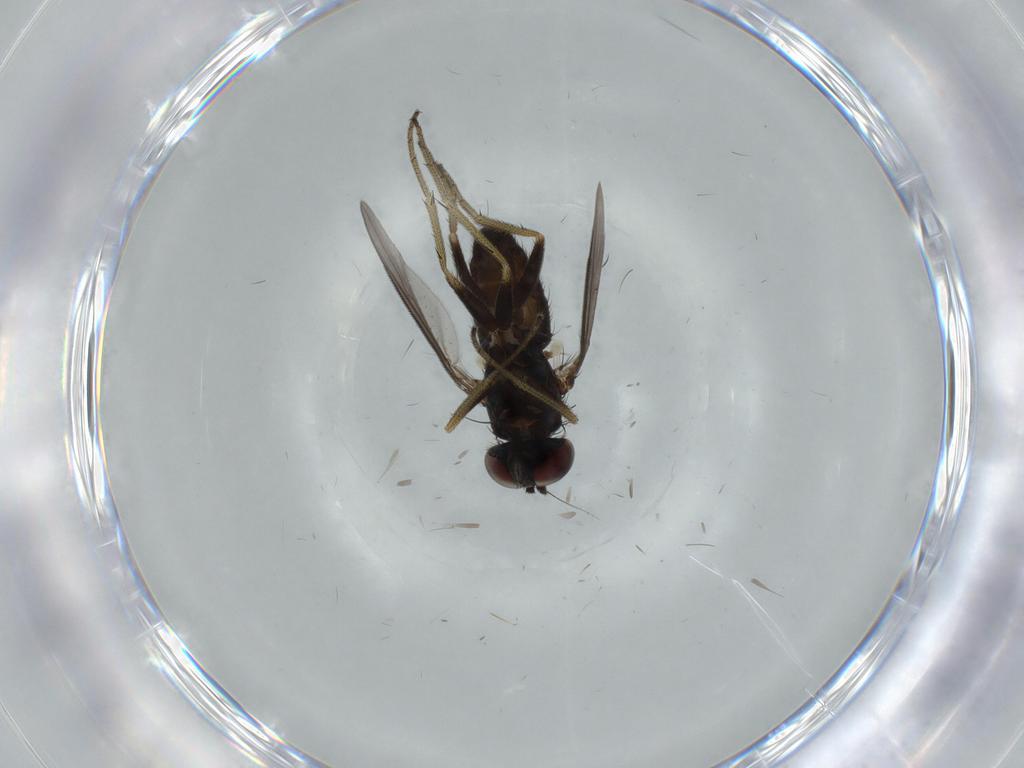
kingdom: Animalia
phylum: Arthropoda
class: Insecta
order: Diptera
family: Dolichopodidae
